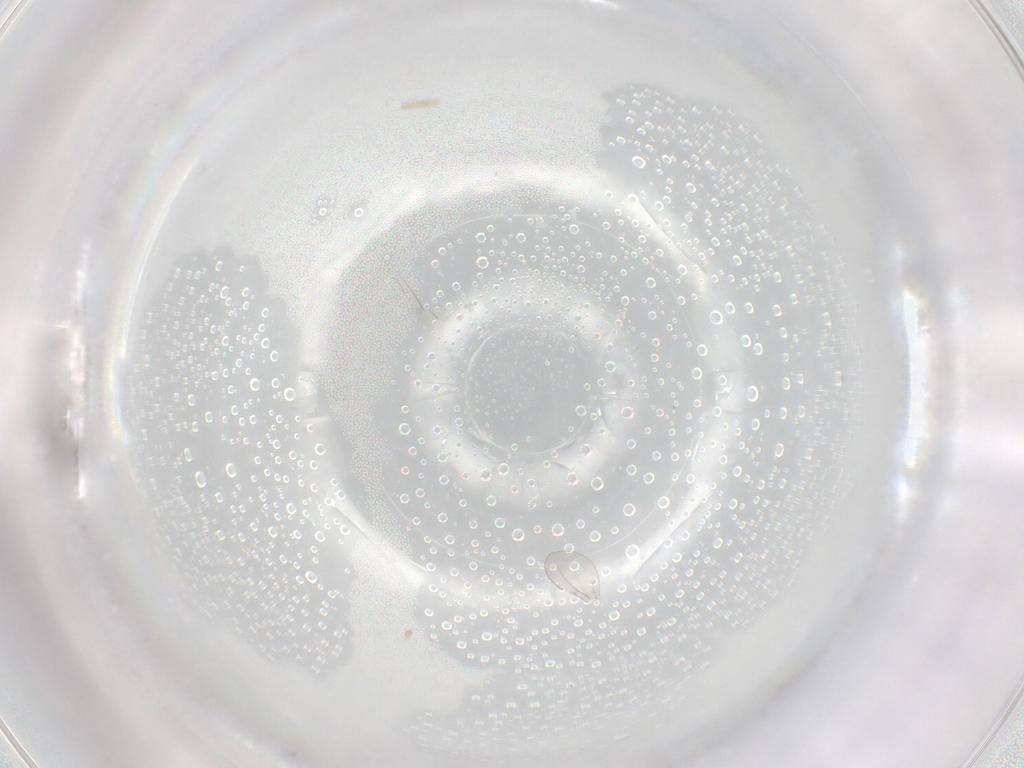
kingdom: Animalia
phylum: Arthropoda
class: Insecta
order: Diptera
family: Cecidomyiidae
